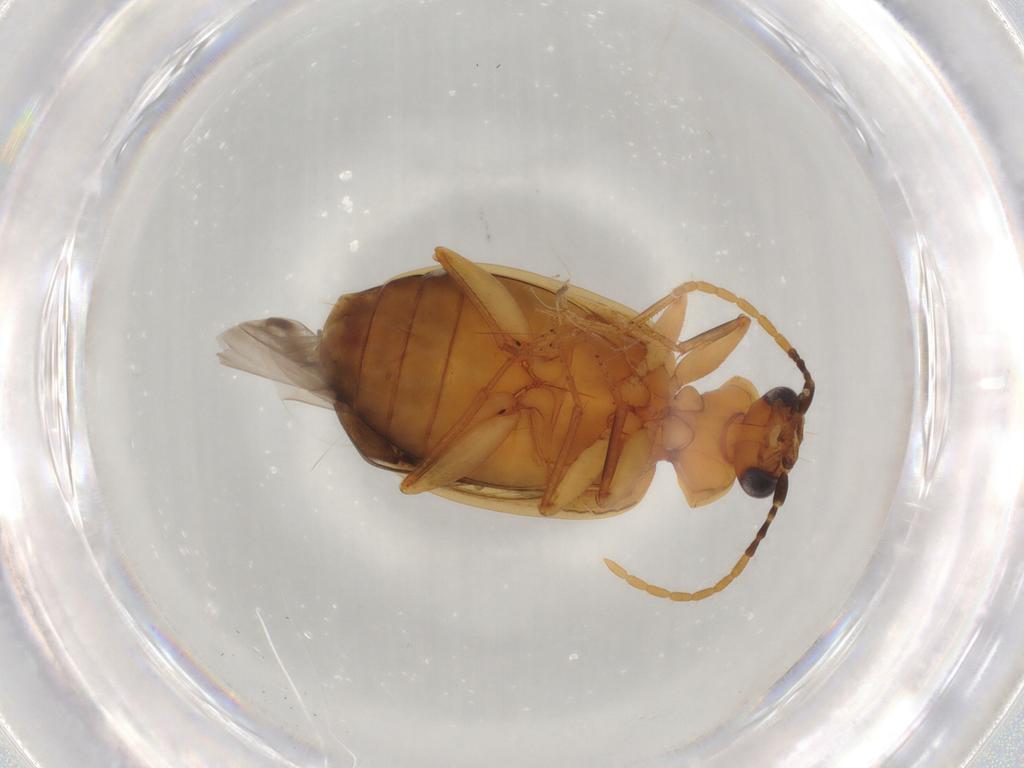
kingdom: Animalia
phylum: Arthropoda
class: Insecta
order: Coleoptera
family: Carabidae
